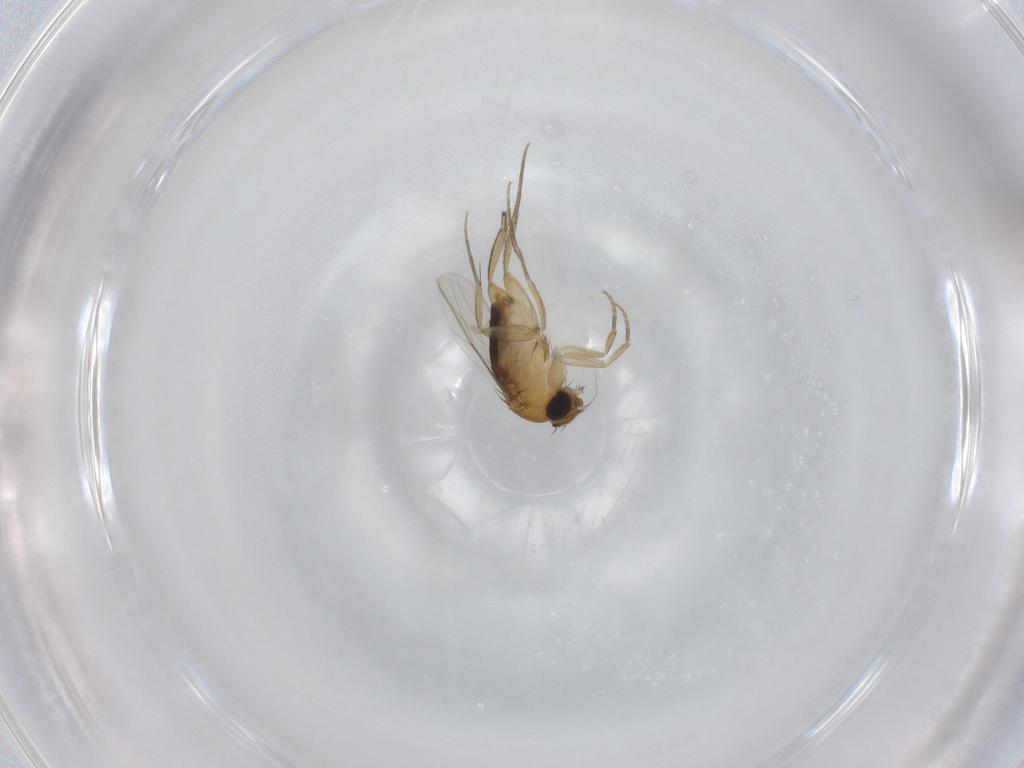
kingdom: Animalia
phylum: Arthropoda
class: Insecta
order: Diptera
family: Phoridae
